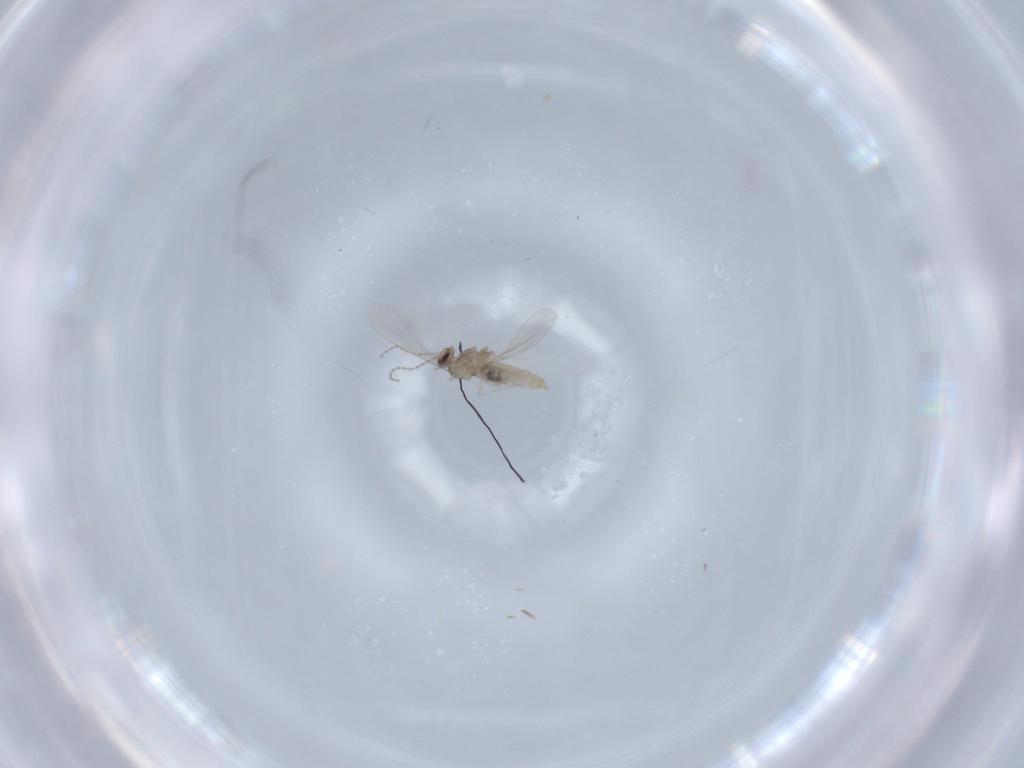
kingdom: Animalia
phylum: Arthropoda
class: Insecta
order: Diptera
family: Cecidomyiidae
